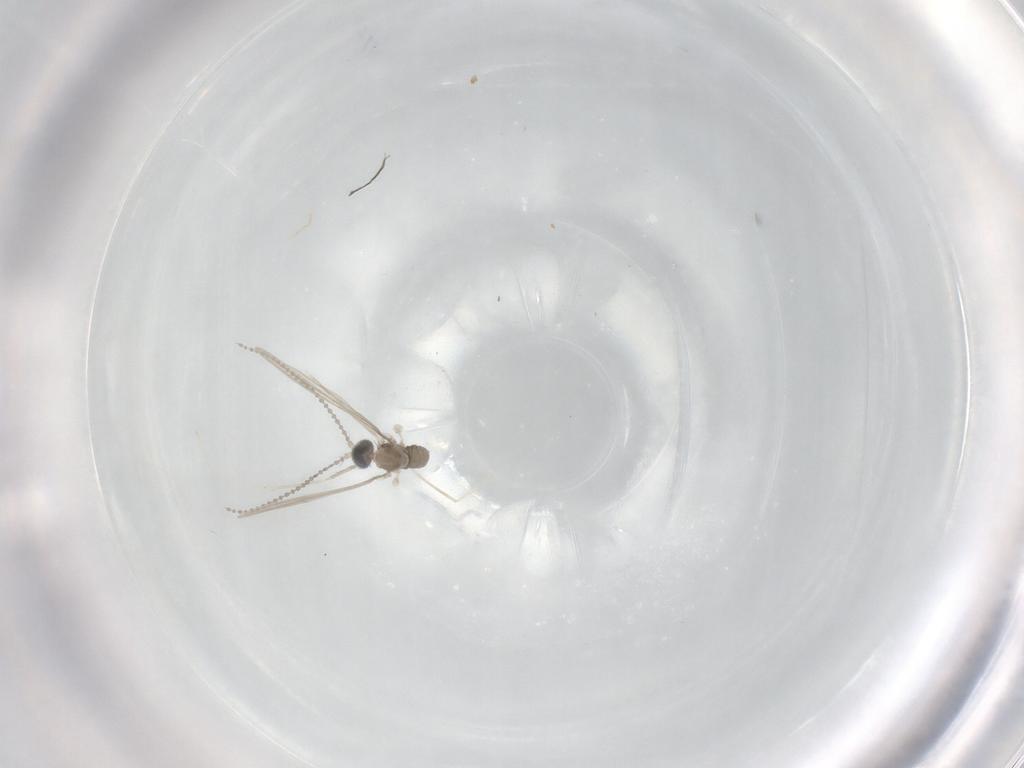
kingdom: Animalia
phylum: Arthropoda
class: Insecta
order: Diptera
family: Cecidomyiidae
